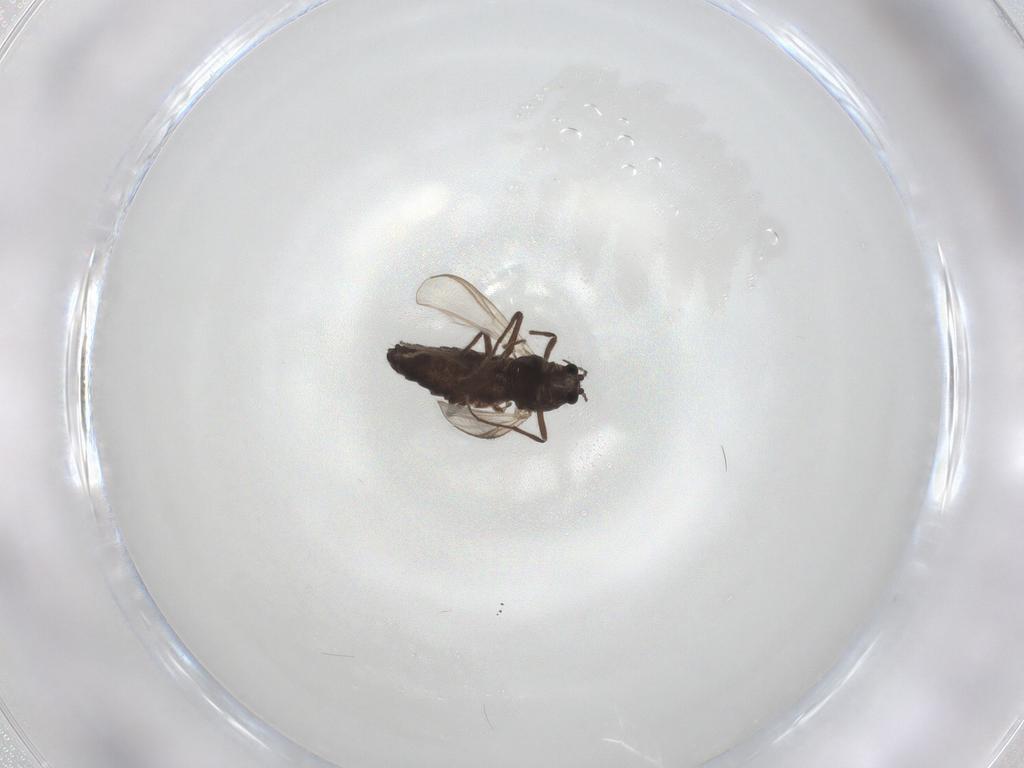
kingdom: Animalia
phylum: Arthropoda
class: Insecta
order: Diptera
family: Chironomidae
